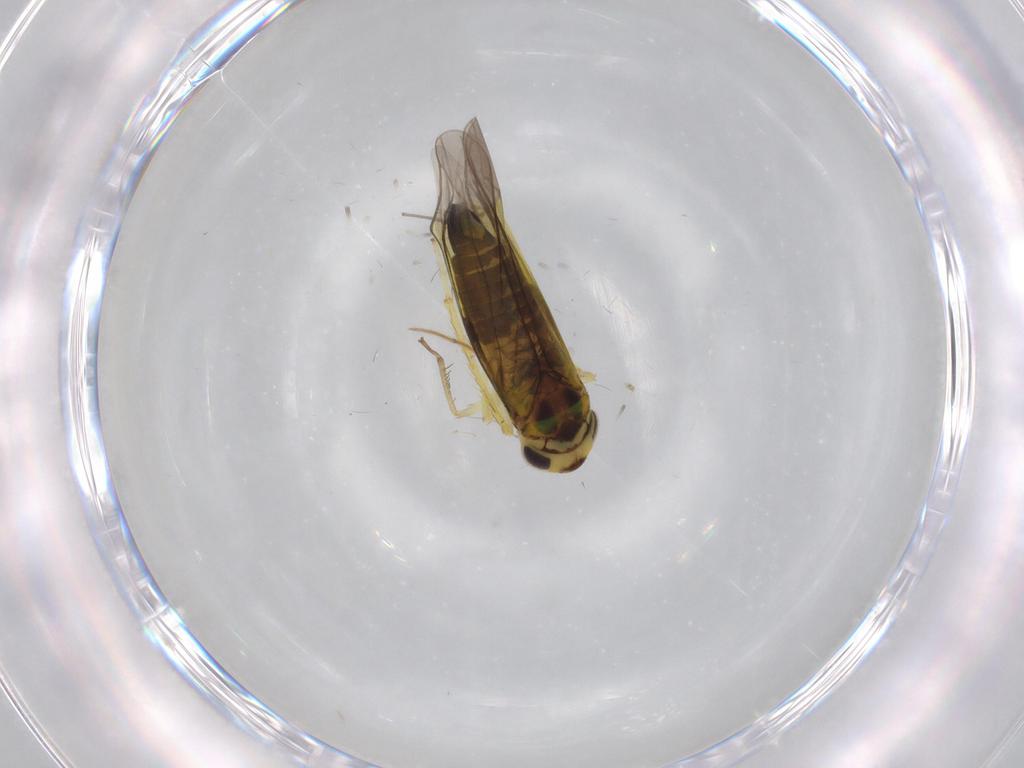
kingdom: Animalia
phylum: Arthropoda
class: Insecta
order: Hemiptera
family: Cicadellidae
